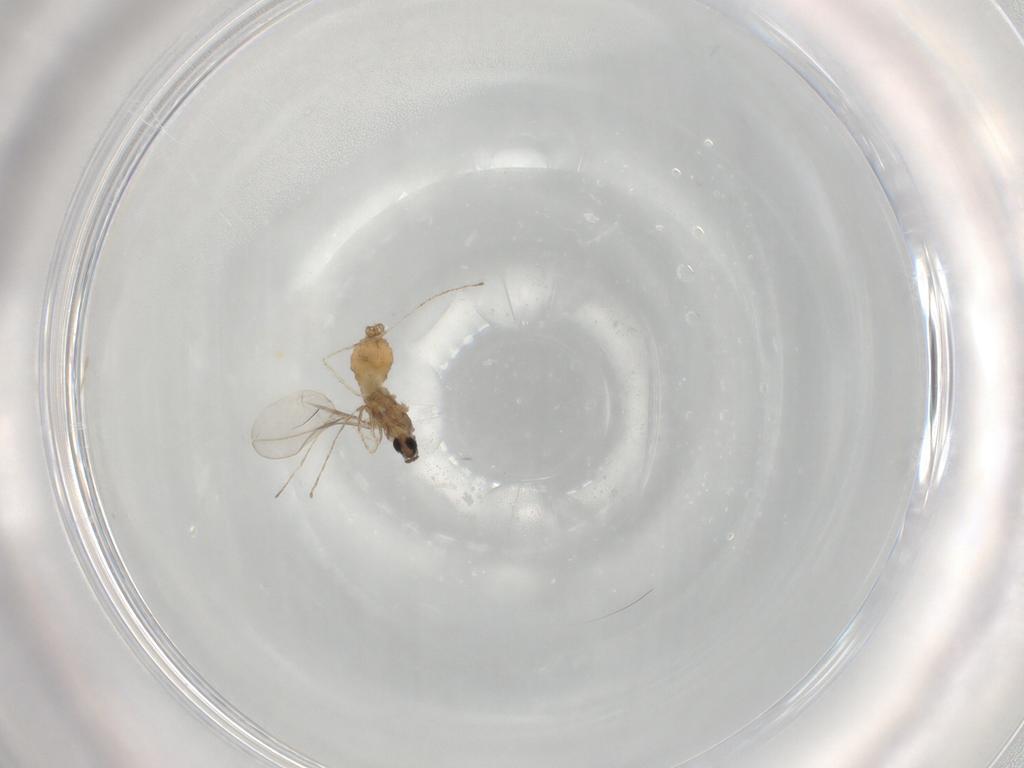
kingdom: Animalia
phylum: Arthropoda
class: Insecta
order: Diptera
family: Cecidomyiidae
